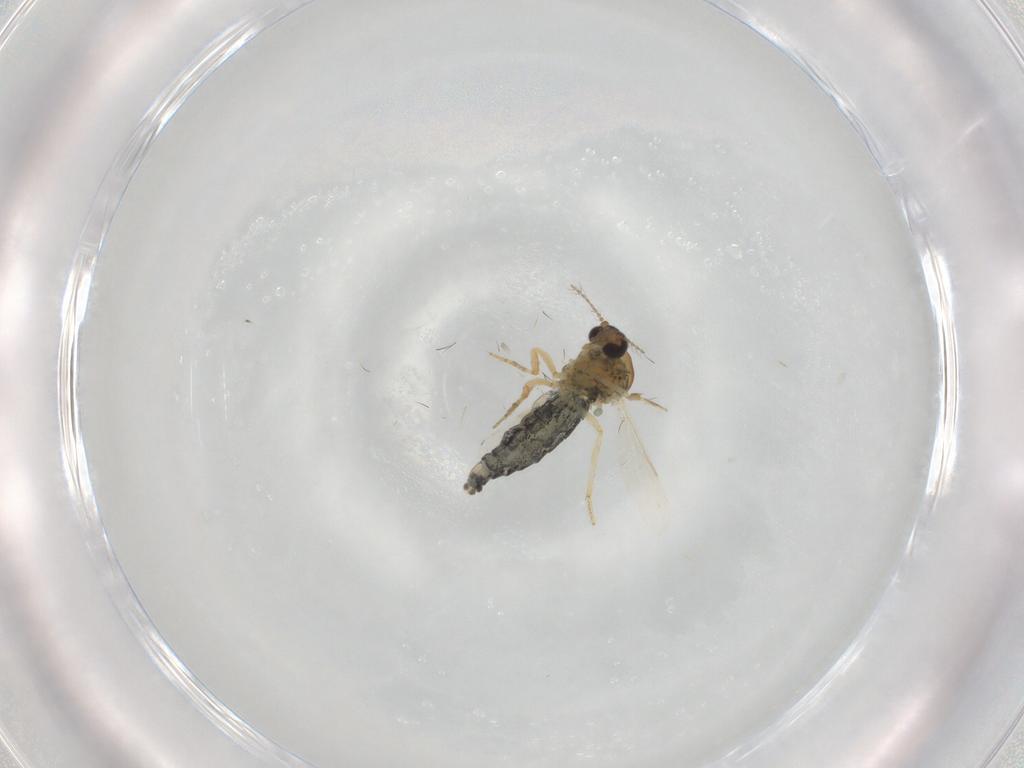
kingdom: Animalia
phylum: Arthropoda
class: Insecta
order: Diptera
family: Ceratopogonidae
